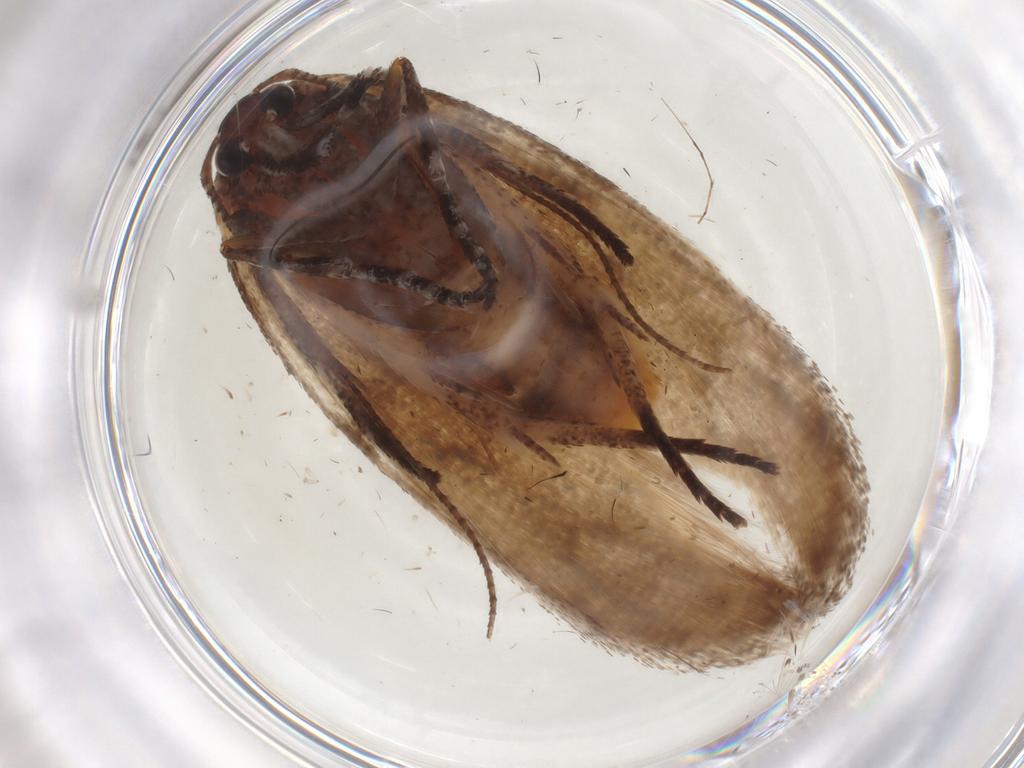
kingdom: Animalia
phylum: Arthropoda
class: Insecta
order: Lepidoptera
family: Cosmopterigidae
